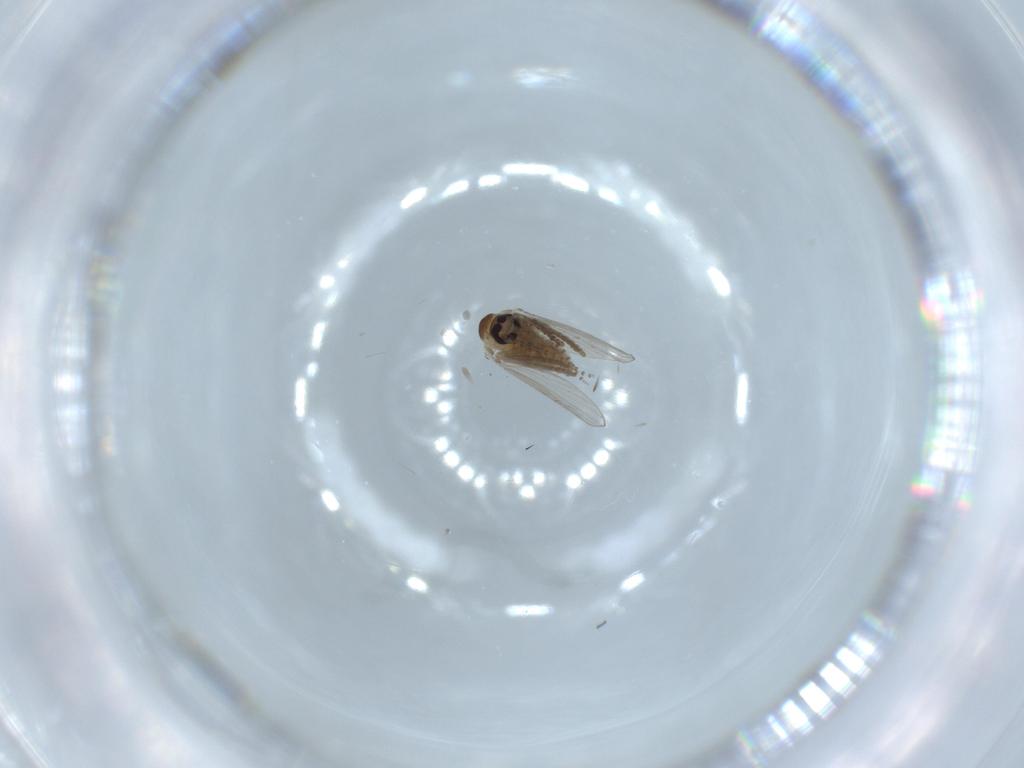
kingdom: Animalia
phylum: Arthropoda
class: Insecta
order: Diptera
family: Psychodidae
